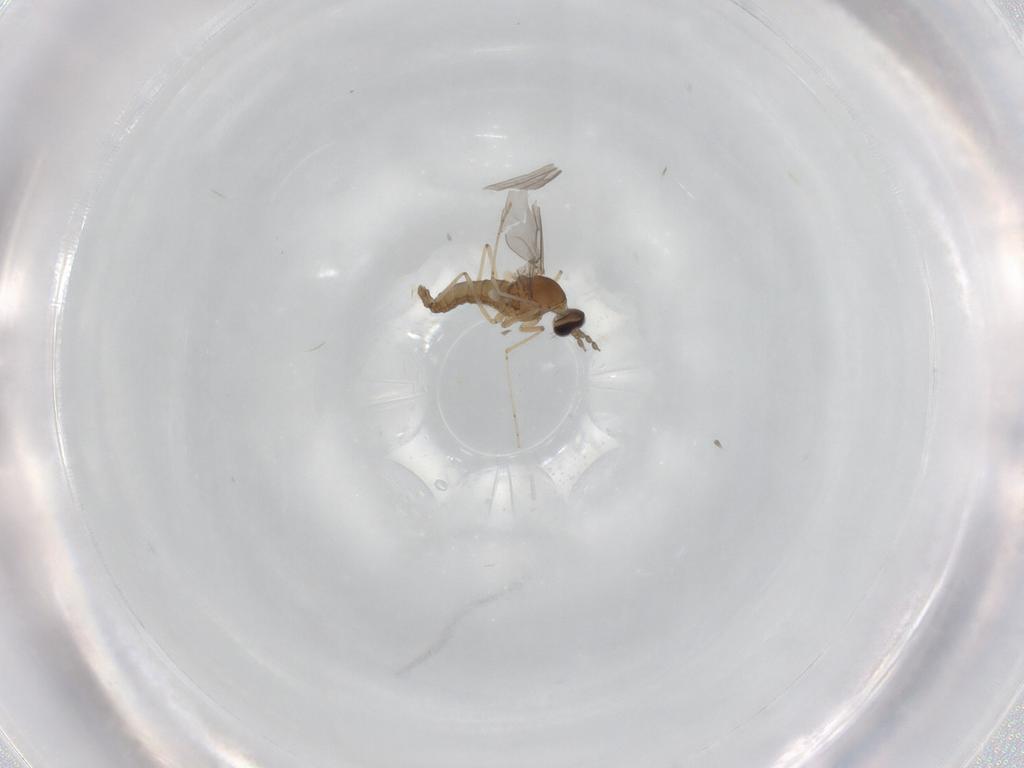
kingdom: Animalia
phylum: Arthropoda
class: Insecta
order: Diptera
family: Cecidomyiidae
